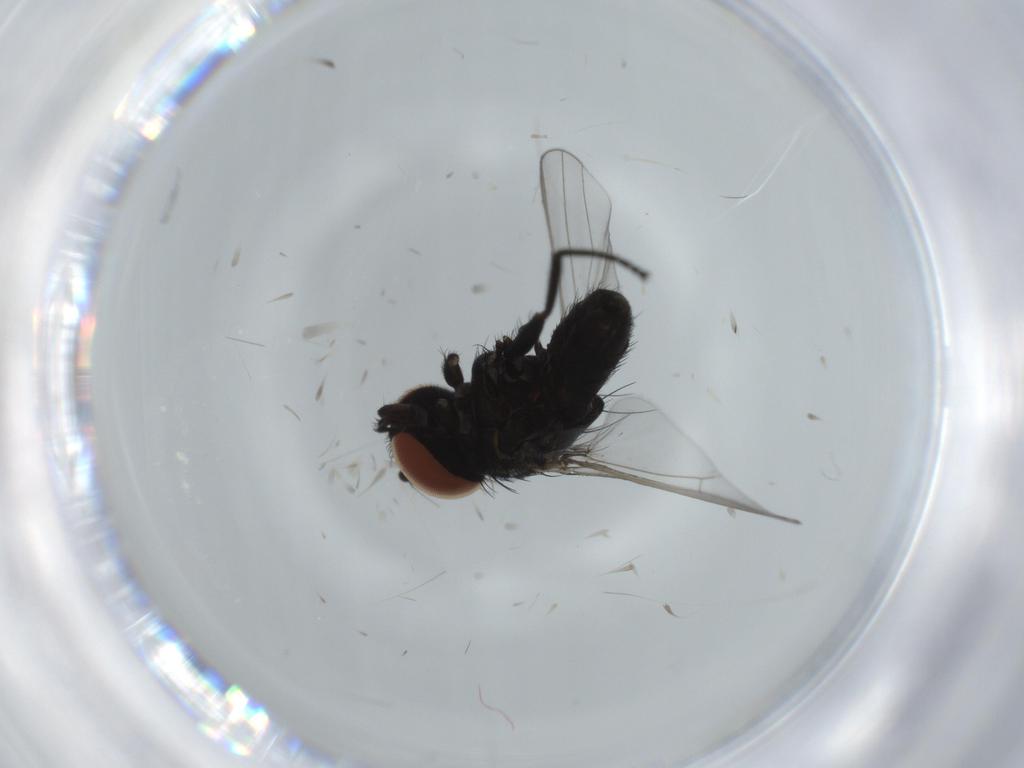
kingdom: Animalia
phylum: Arthropoda
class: Insecta
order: Diptera
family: Milichiidae
